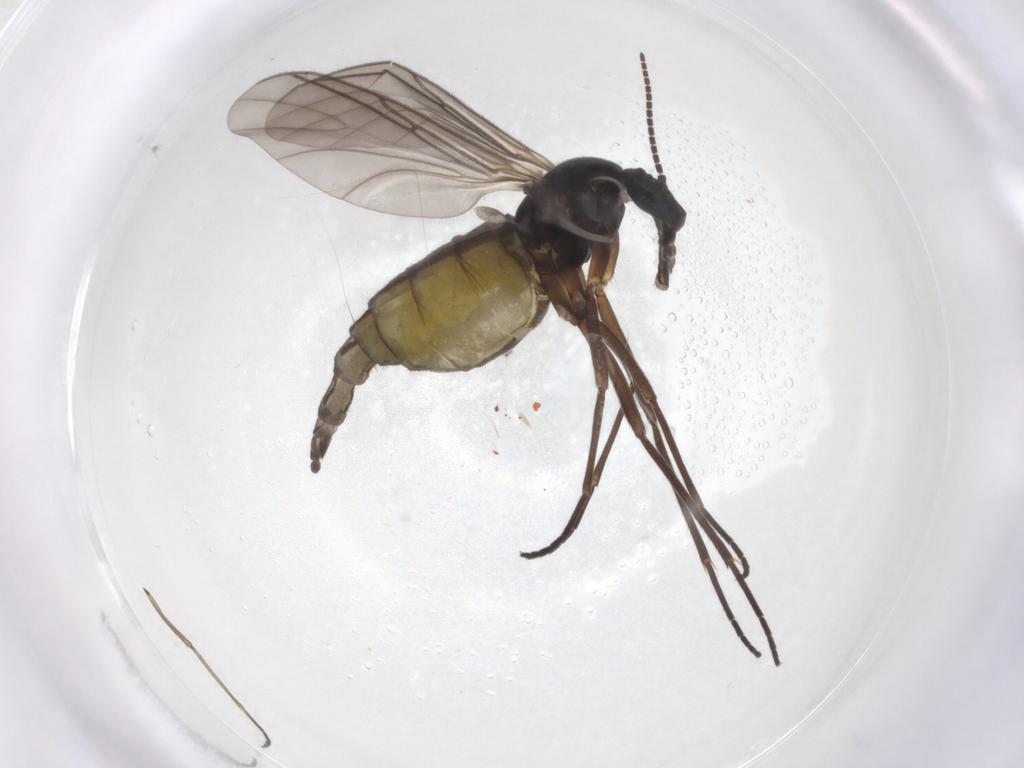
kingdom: Animalia
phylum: Arthropoda
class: Insecta
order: Diptera
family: Sciaridae
